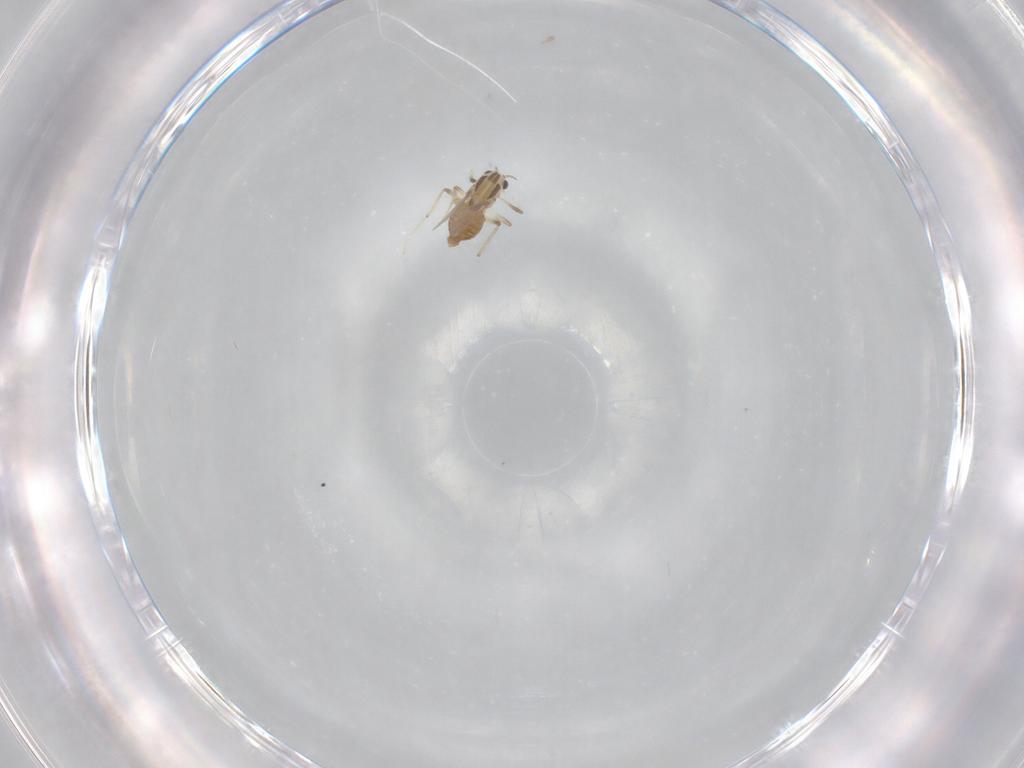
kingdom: Animalia
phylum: Arthropoda
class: Insecta
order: Diptera
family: Chironomidae
